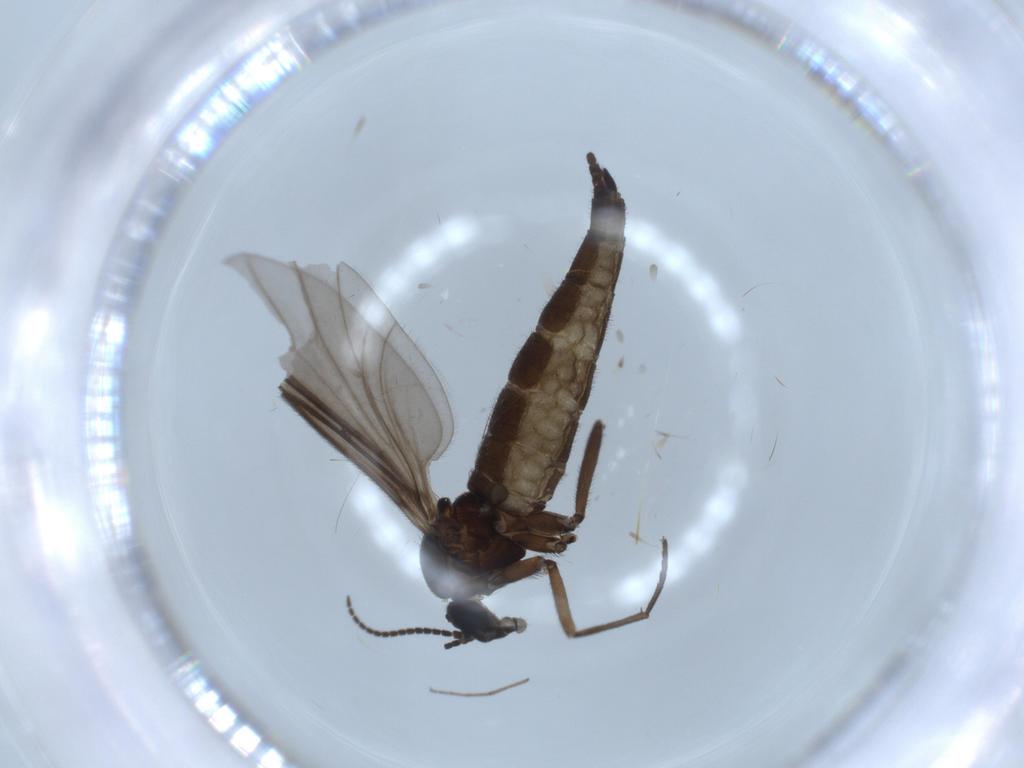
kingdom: Animalia
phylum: Arthropoda
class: Insecta
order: Diptera
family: Sciaridae
